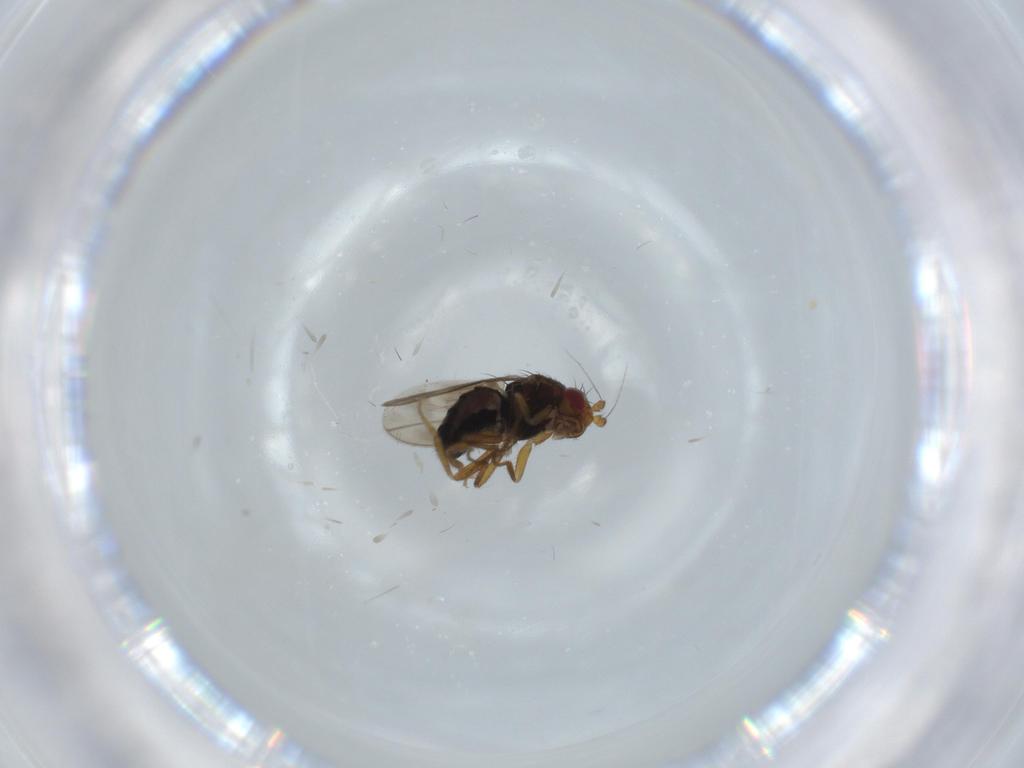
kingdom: Animalia
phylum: Arthropoda
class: Insecta
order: Diptera
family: Sphaeroceridae
